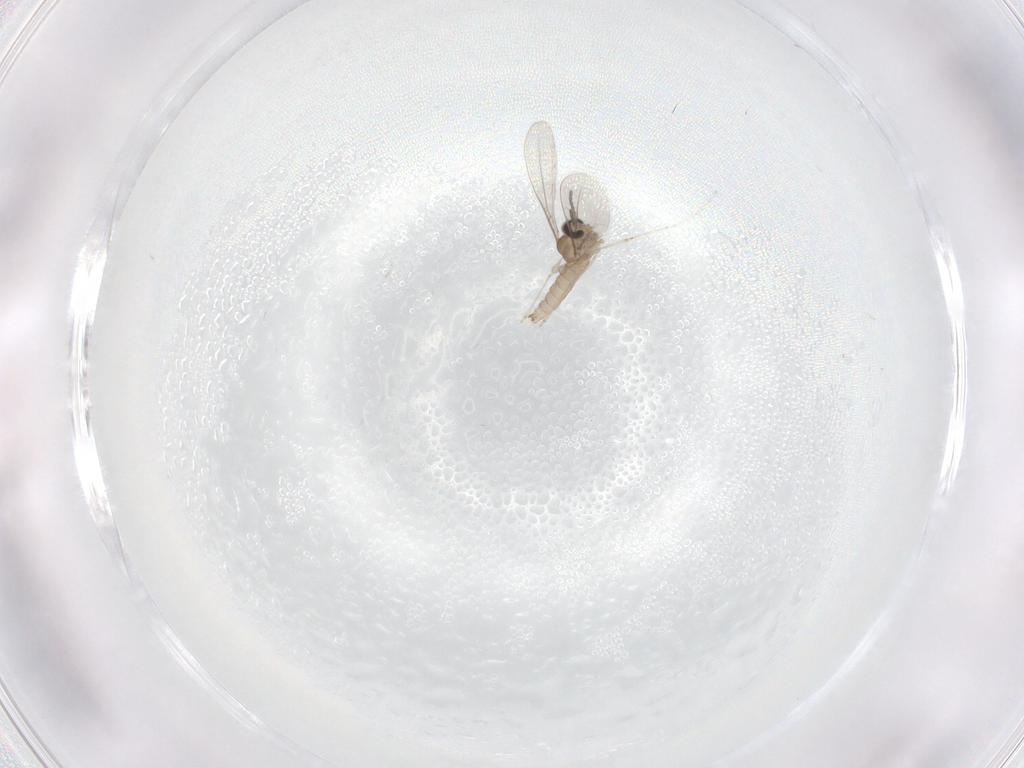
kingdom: Animalia
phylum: Arthropoda
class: Insecta
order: Diptera
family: Cecidomyiidae
